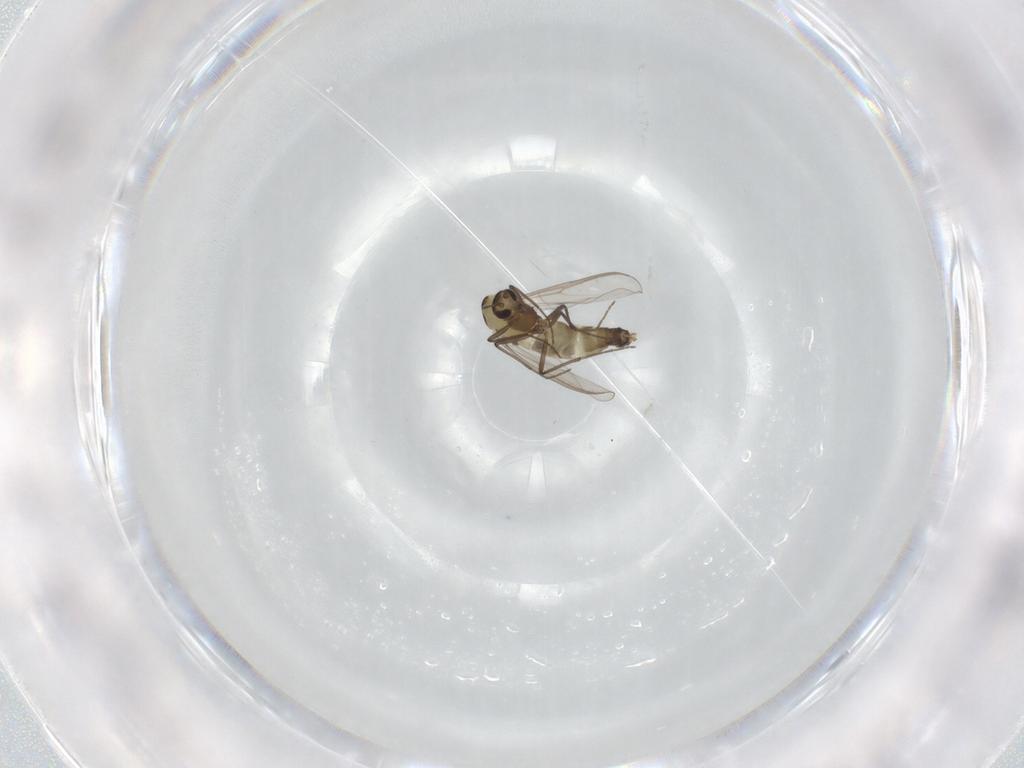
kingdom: Animalia
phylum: Arthropoda
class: Insecta
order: Diptera
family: Chironomidae
